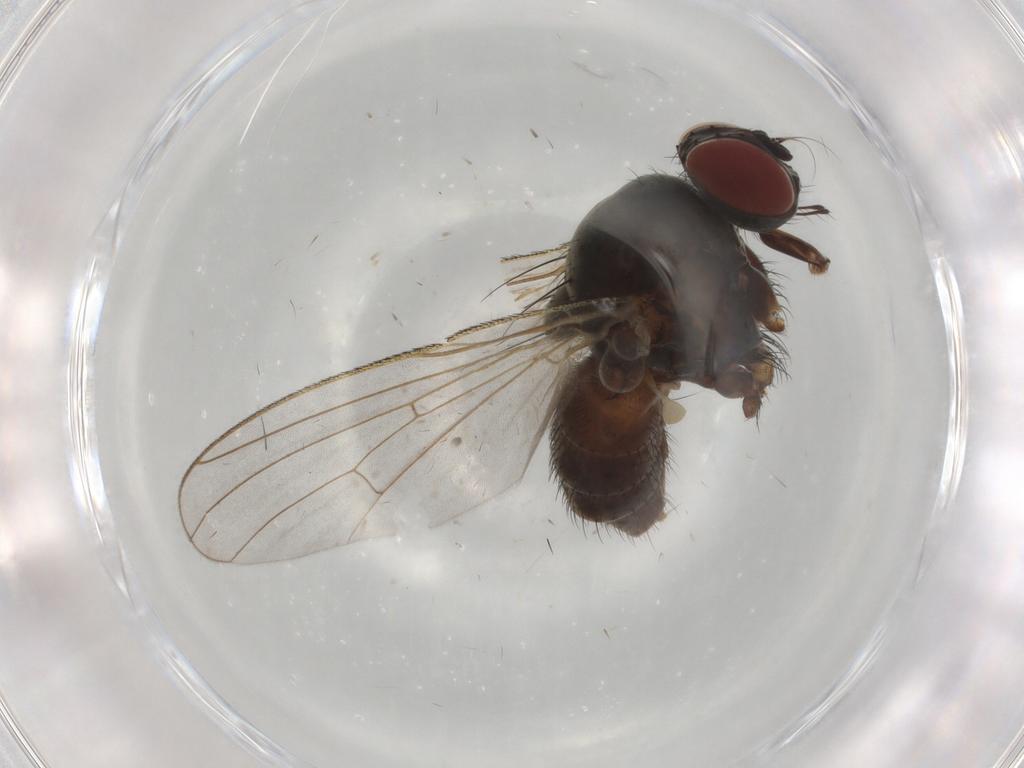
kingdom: Animalia
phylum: Arthropoda
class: Insecta
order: Diptera
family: Chloropidae
